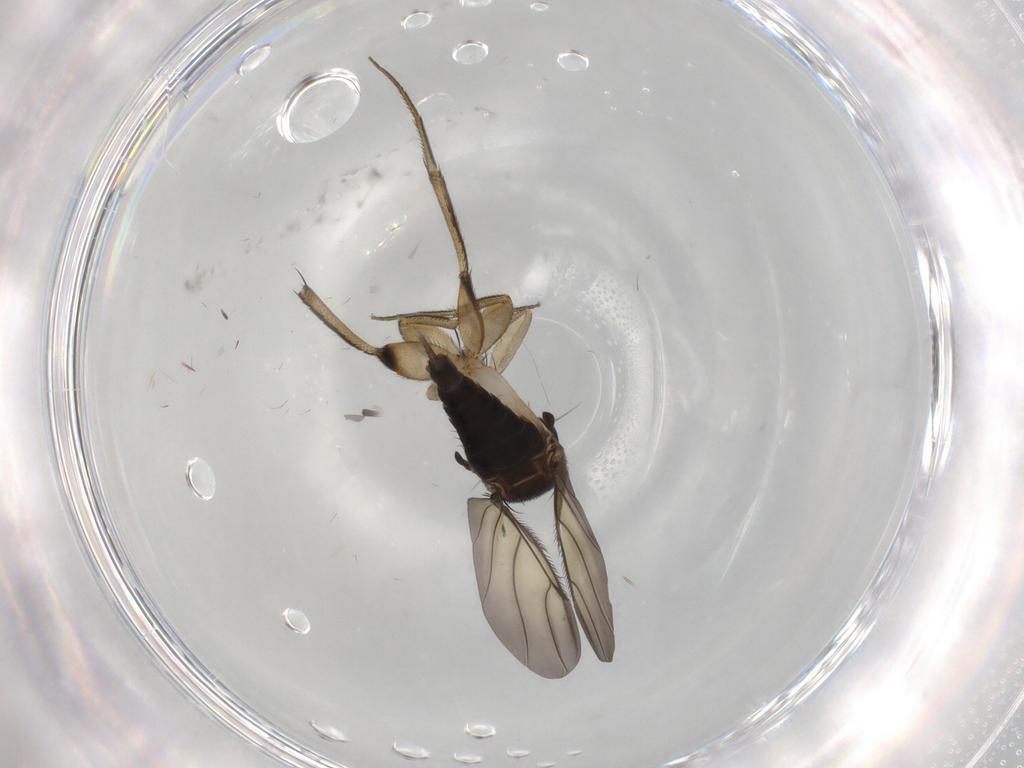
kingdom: Animalia
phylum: Arthropoda
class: Insecta
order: Diptera
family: Phoridae
